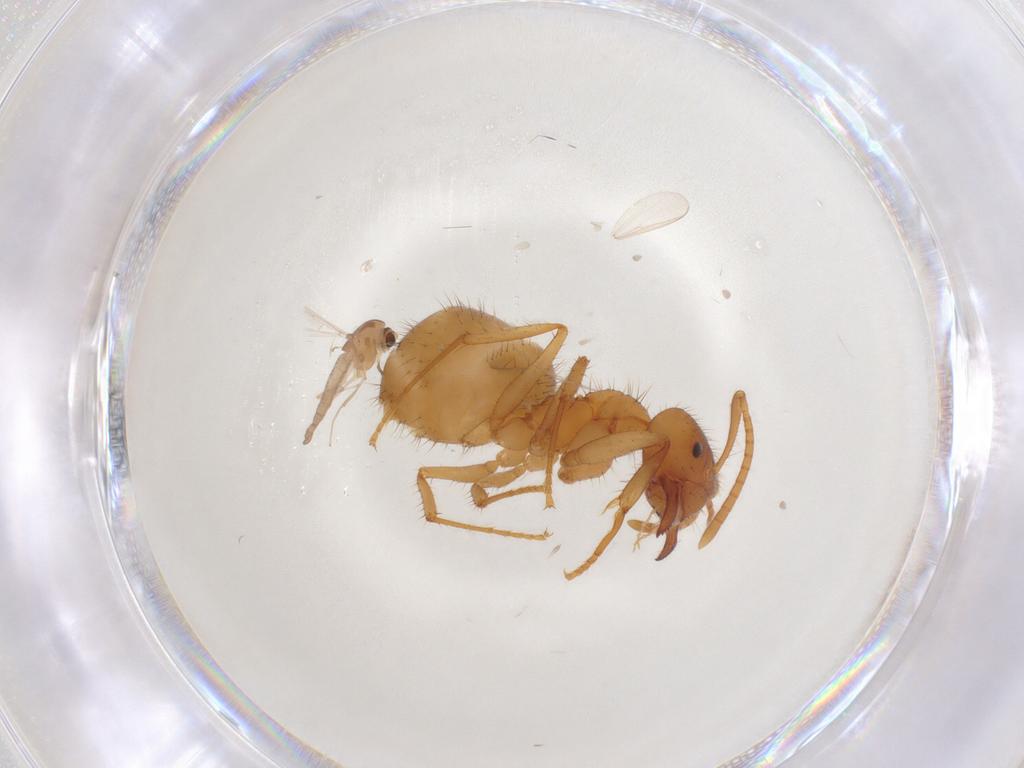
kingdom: Animalia
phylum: Arthropoda
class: Insecta
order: Hymenoptera
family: Formicidae
